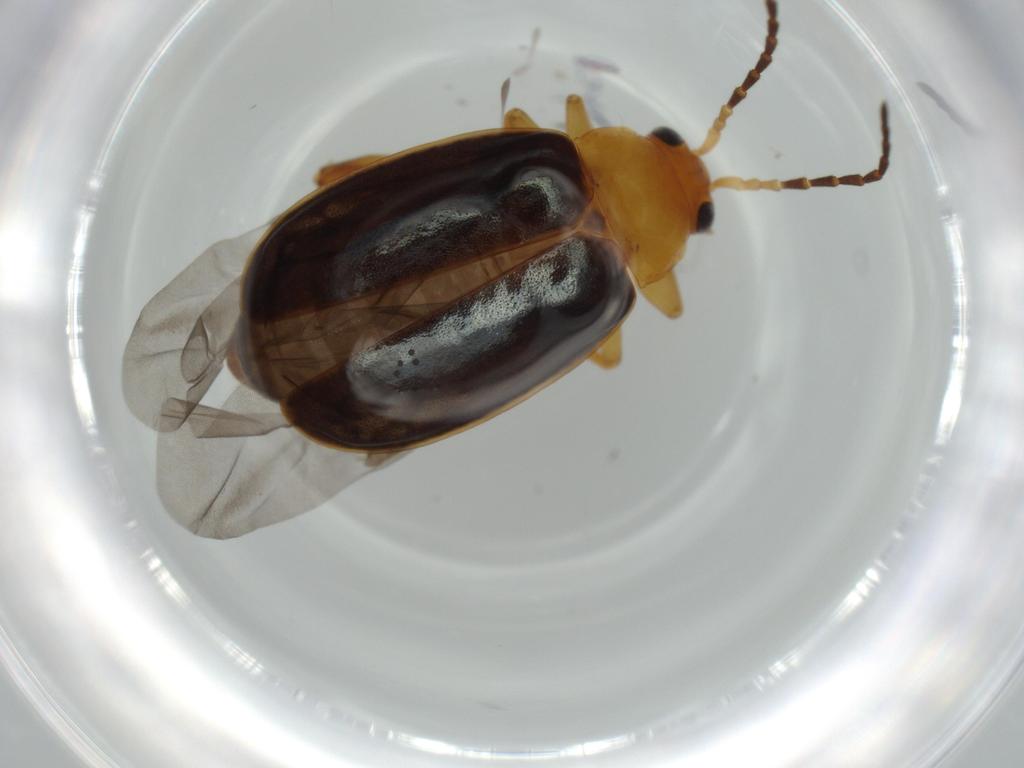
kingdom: Animalia
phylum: Arthropoda
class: Insecta
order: Coleoptera
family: Chrysomelidae
